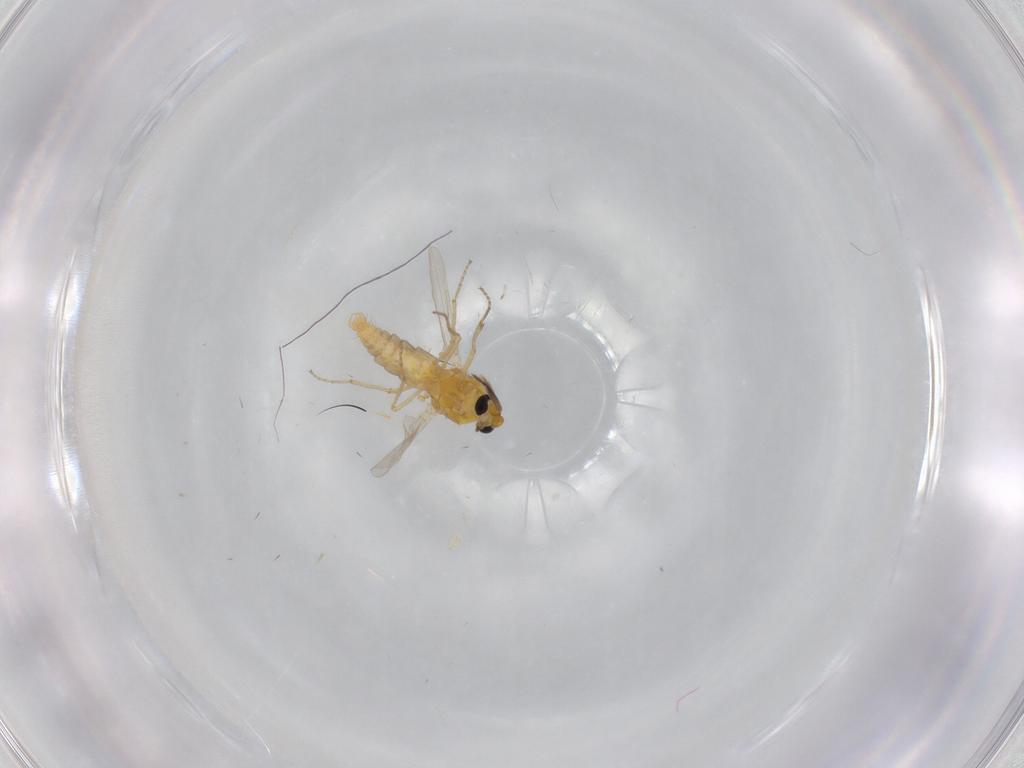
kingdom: Animalia
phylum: Arthropoda
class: Insecta
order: Diptera
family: Ceratopogonidae
